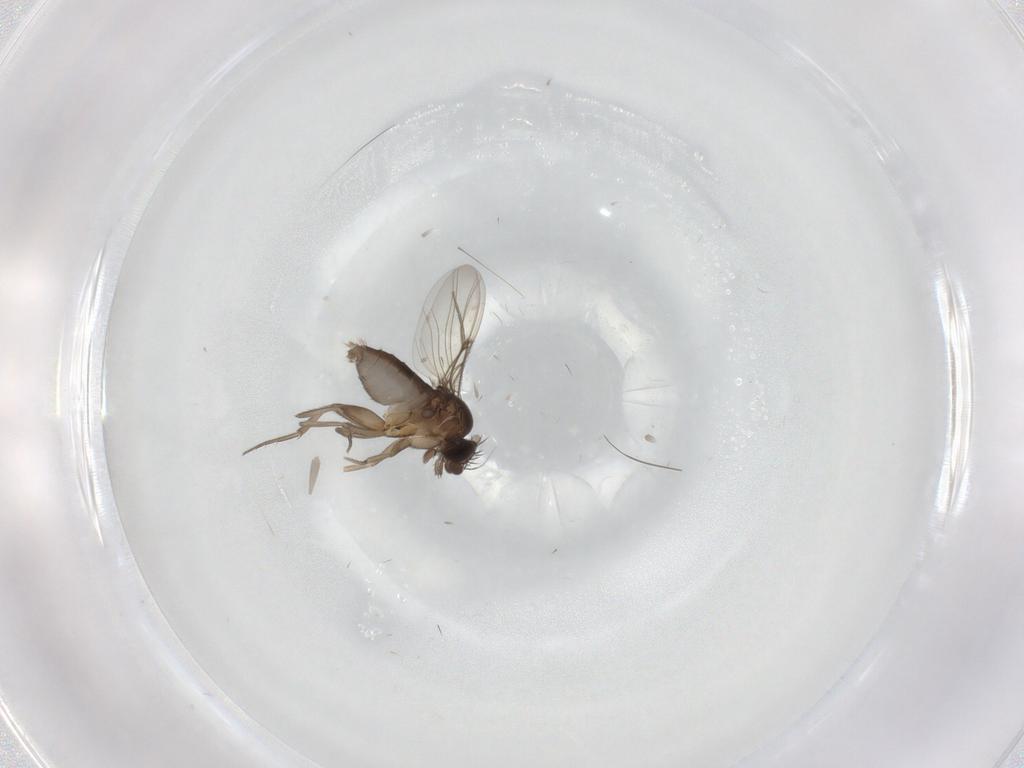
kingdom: Animalia
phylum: Arthropoda
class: Insecta
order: Diptera
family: Phoridae
